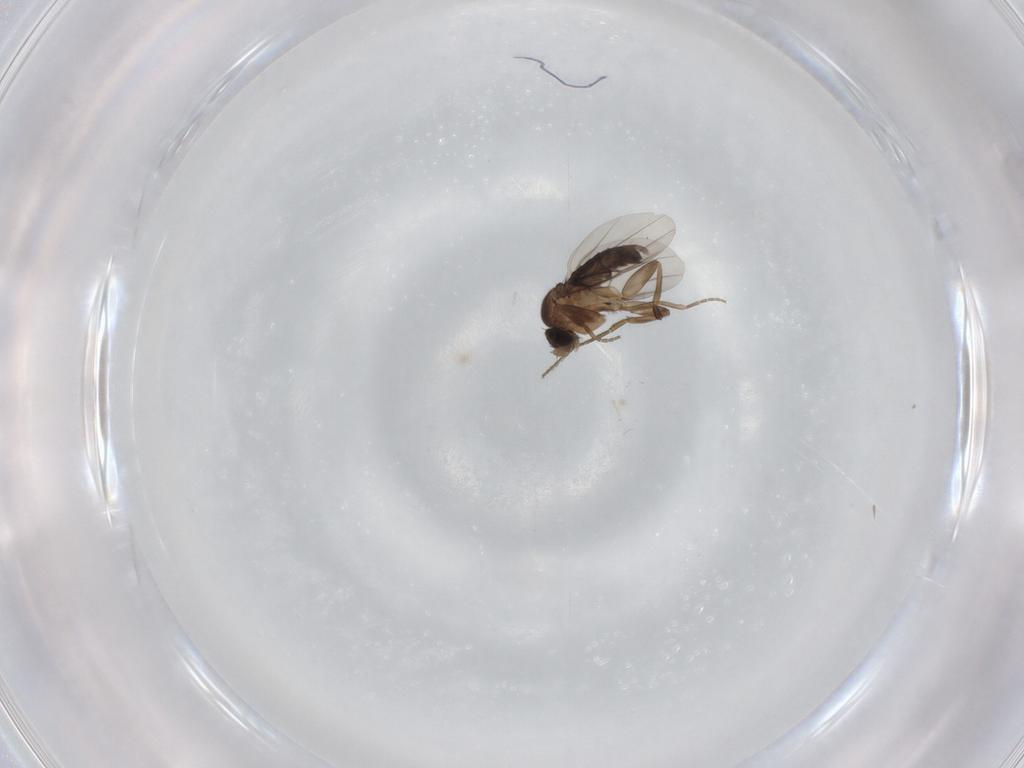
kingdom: Animalia
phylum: Arthropoda
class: Insecta
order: Diptera
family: Phoridae
